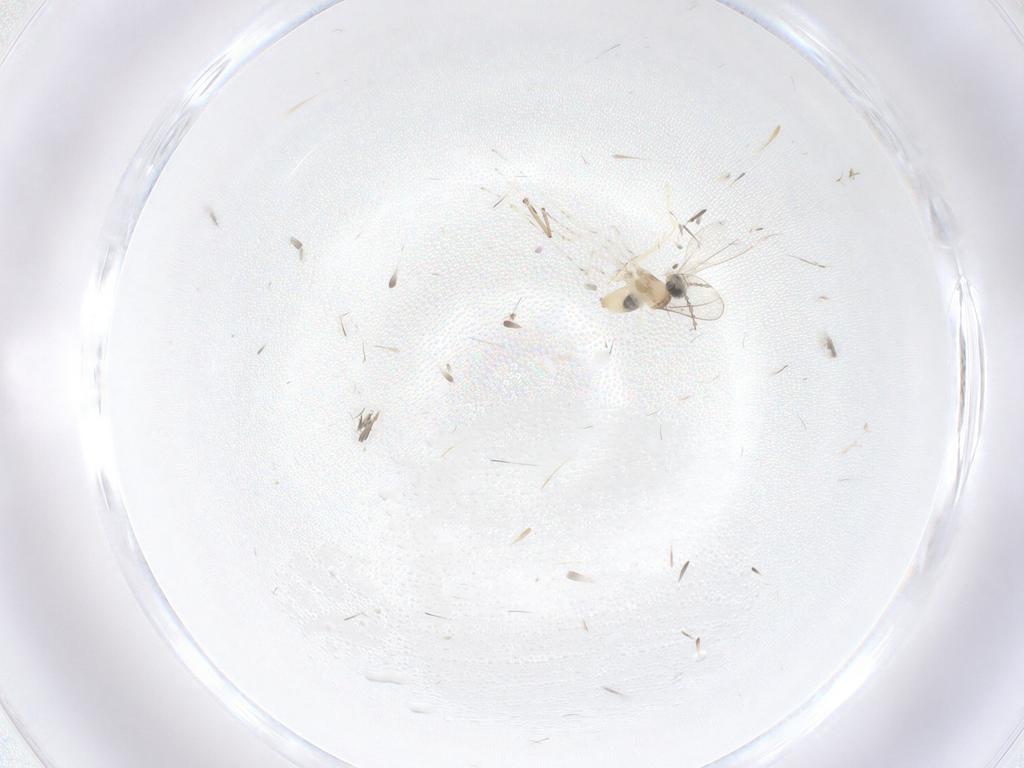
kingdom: Animalia
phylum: Arthropoda
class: Insecta
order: Diptera
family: Cecidomyiidae
